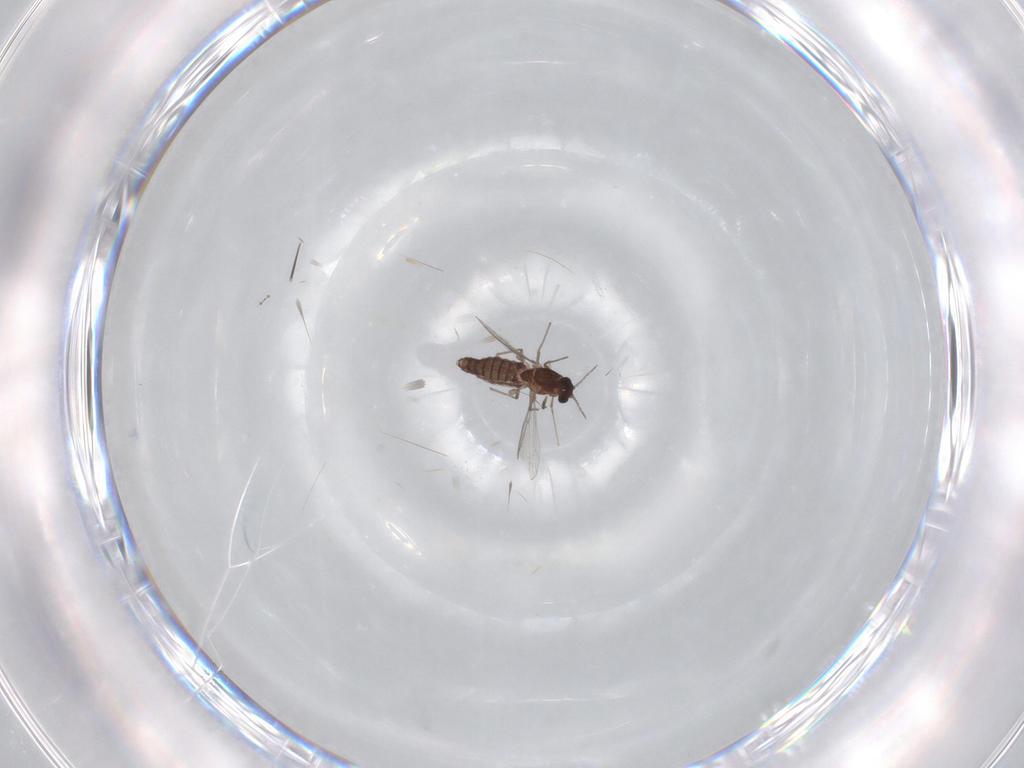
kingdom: Animalia
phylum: Arthropoda
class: Insecta
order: Diptera
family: Chironomidae
